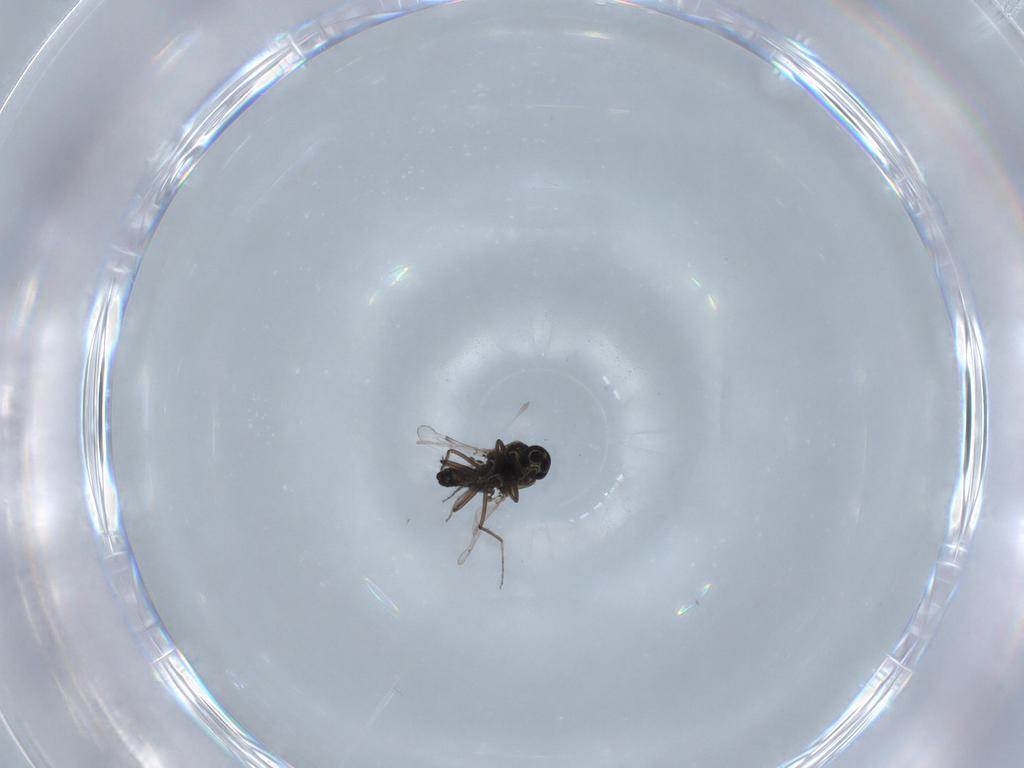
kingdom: Animalia
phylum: Arthropoda
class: Insecta
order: Diptera
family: Ceratopogonidae
